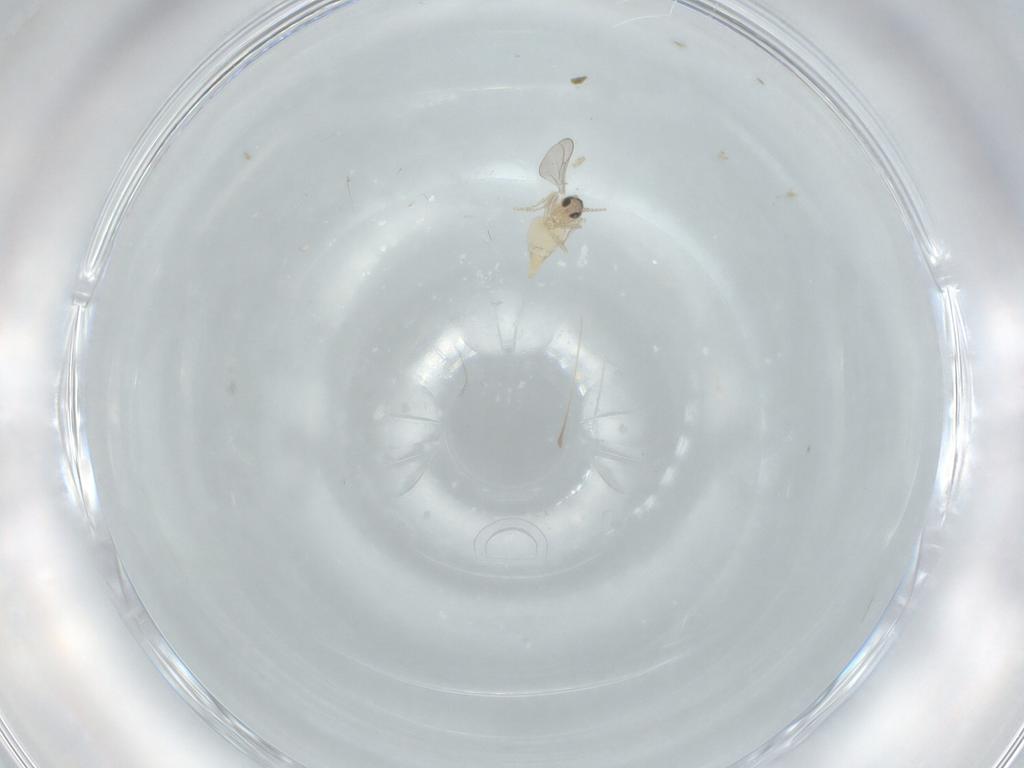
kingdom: Animalia
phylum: Arthropoda
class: Insecta
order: Diptera
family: Cecidomyiidae
